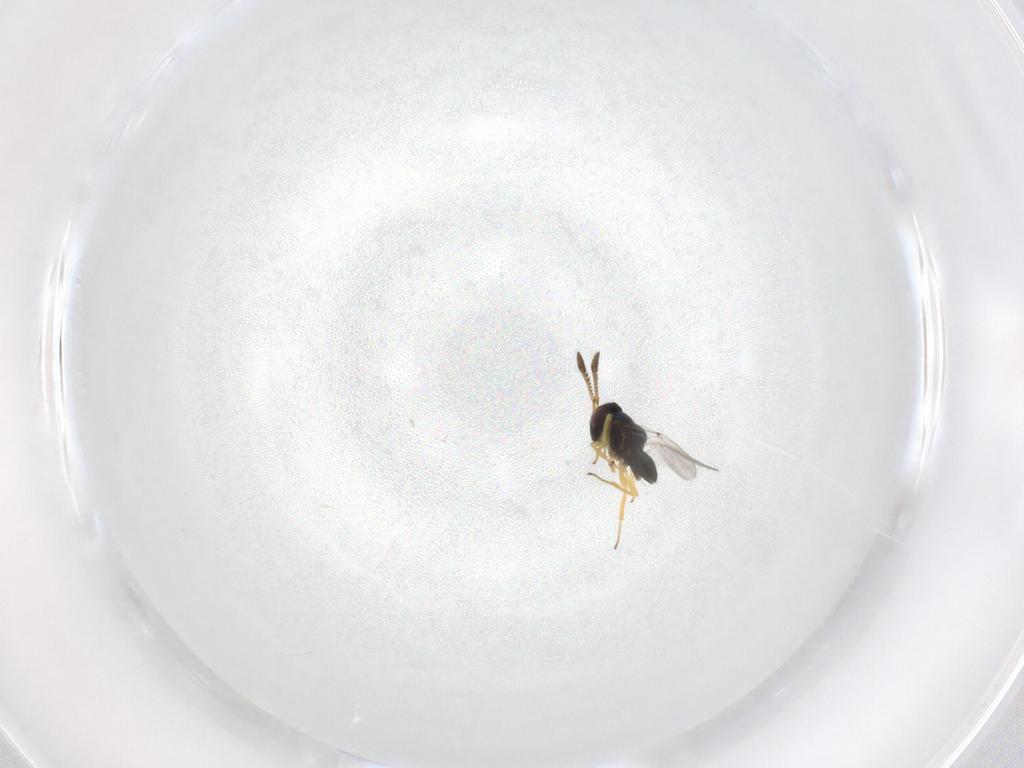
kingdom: Animalia
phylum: Arthropoda
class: Insecta
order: Hymenoptera
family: Encyrtidae
